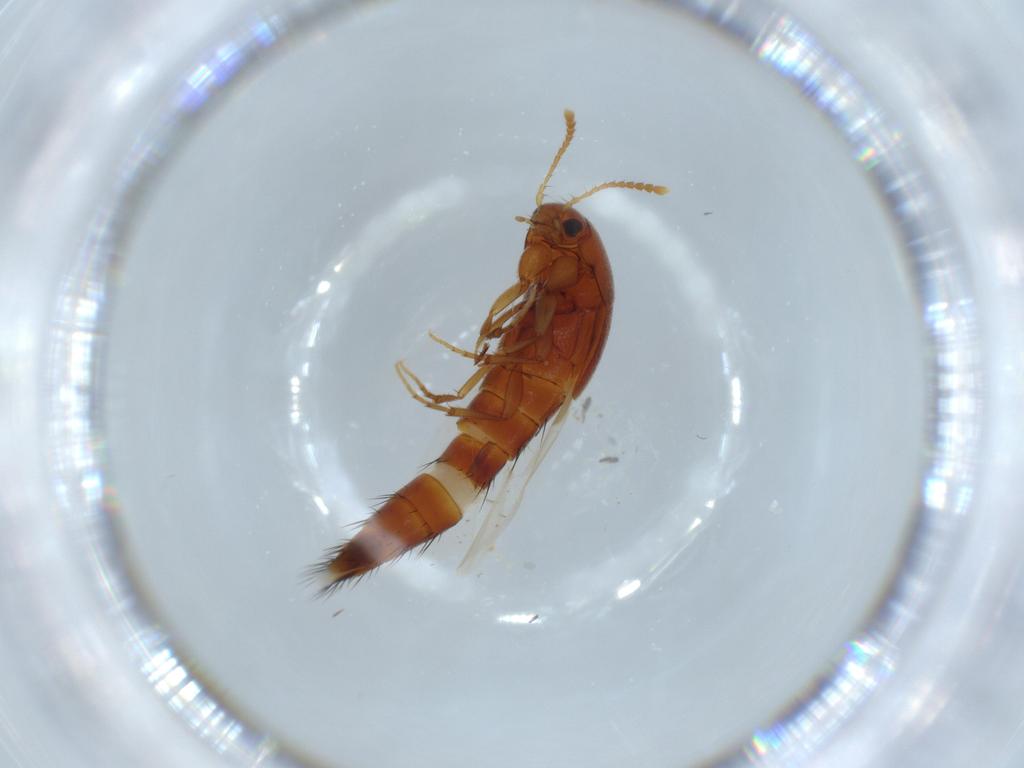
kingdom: Animalia
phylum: Arthropoda
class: Insecta
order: Coleoptera
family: Staphylinidae
